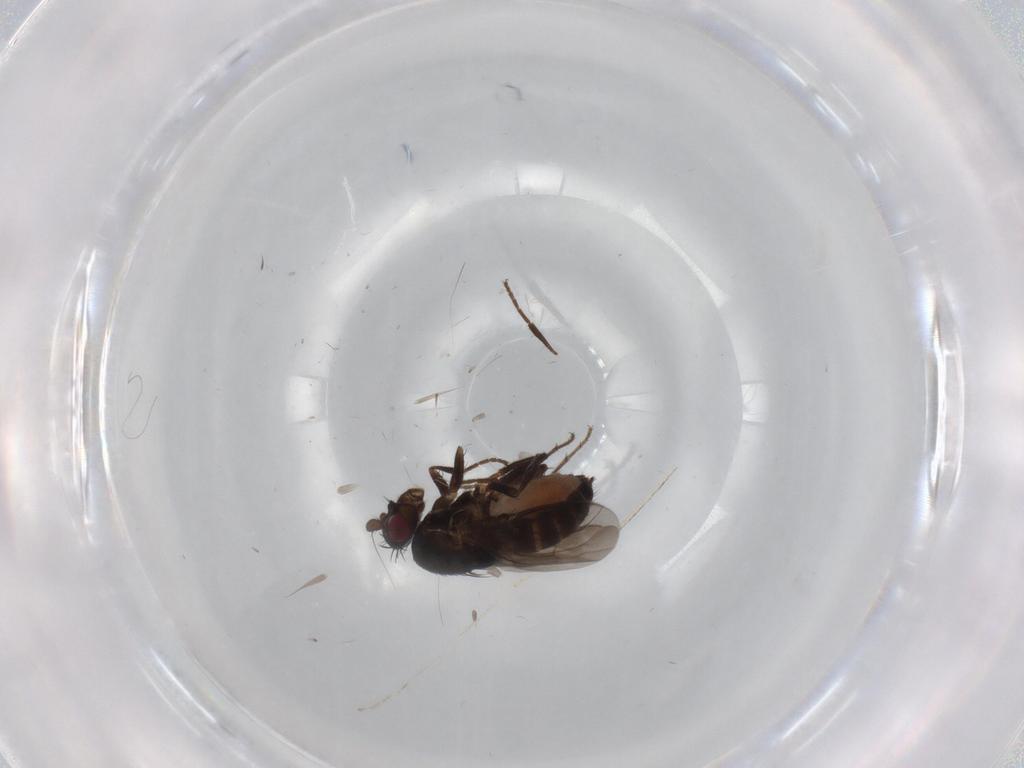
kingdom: Animalia
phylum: Arthropoda
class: Insecta
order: Diptera
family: Sphaeroceridae
